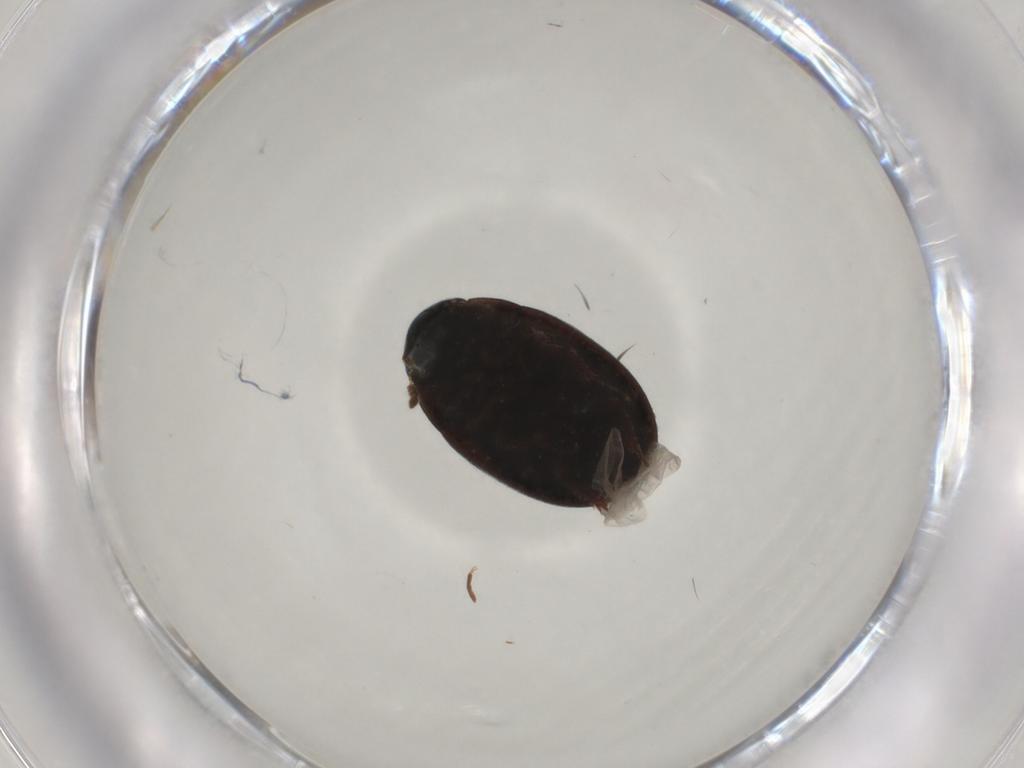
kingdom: Animalia
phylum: Arthropoda
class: Insecta
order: Coleoptera
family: Hydrophilidae
